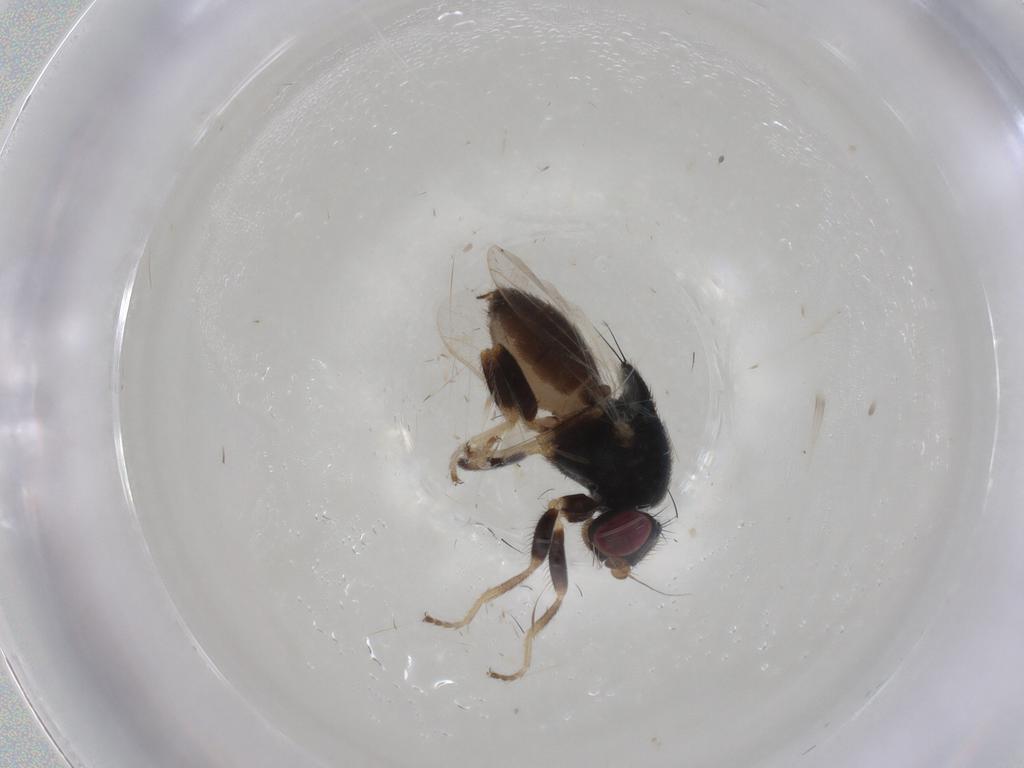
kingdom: Animalia
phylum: Arthropoda
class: Insecta
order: Diptera
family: Chloropidae
